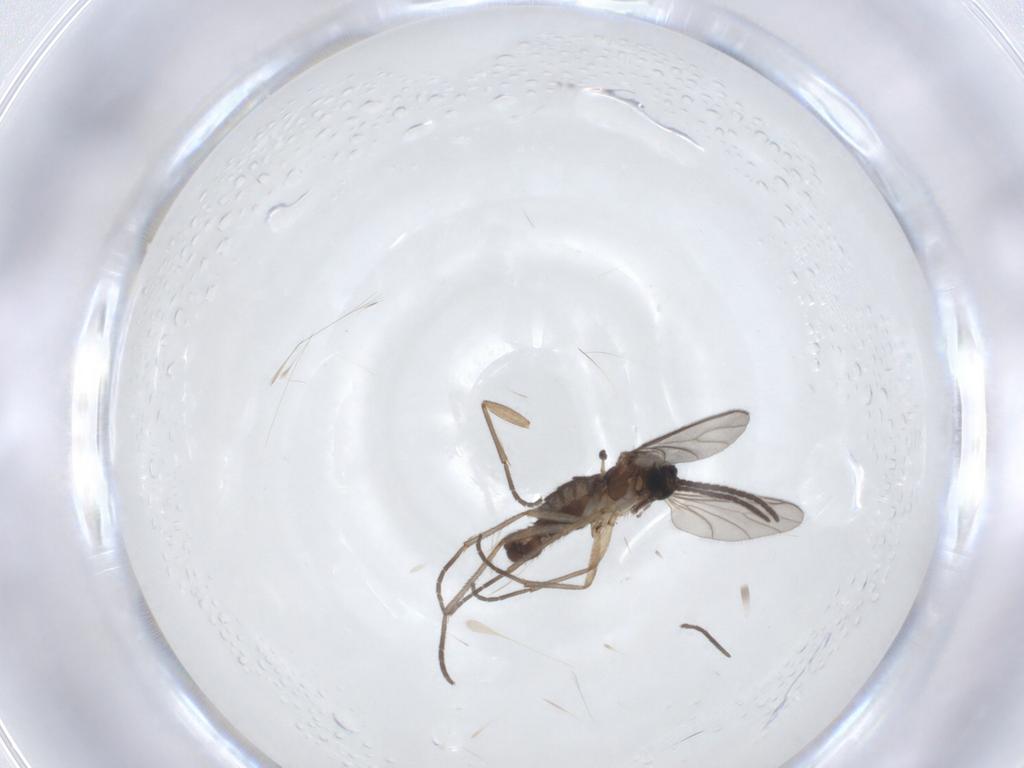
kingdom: Animalia
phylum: Arthropoda
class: Insecta
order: Diptera
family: Sciaridae
